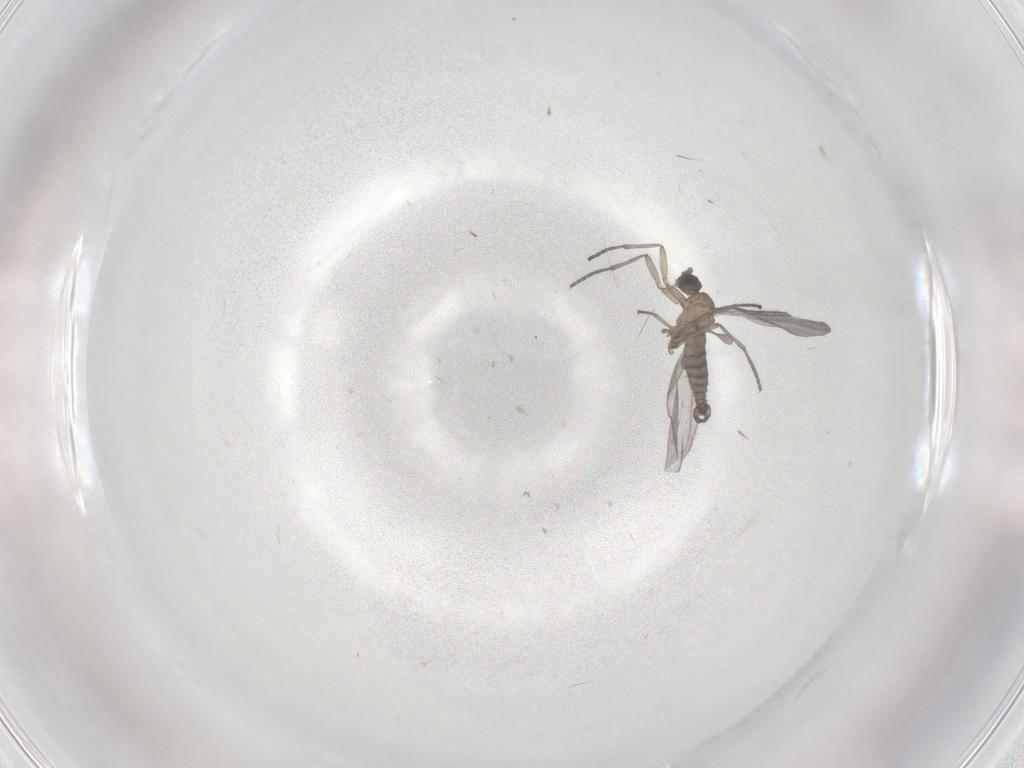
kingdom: Animalia
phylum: Arthropoda
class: Insecta
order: Diptera
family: Sciaridae
